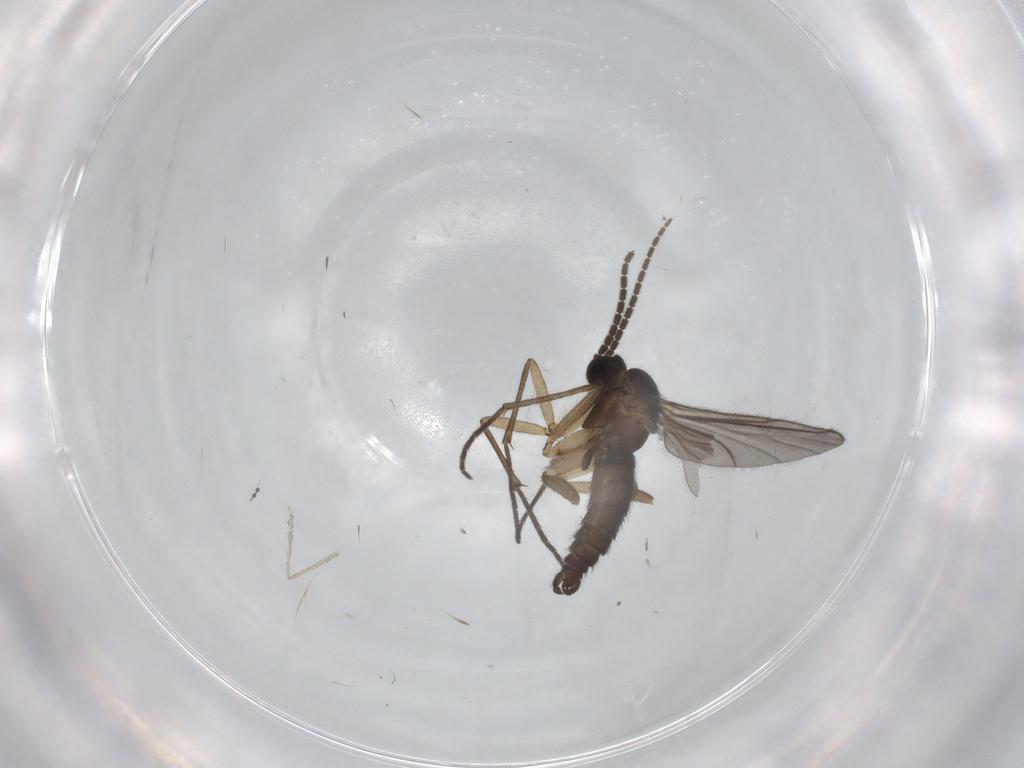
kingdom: Animalia
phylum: Arthropoda
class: Insecta
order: Diptera
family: Sciaridae
